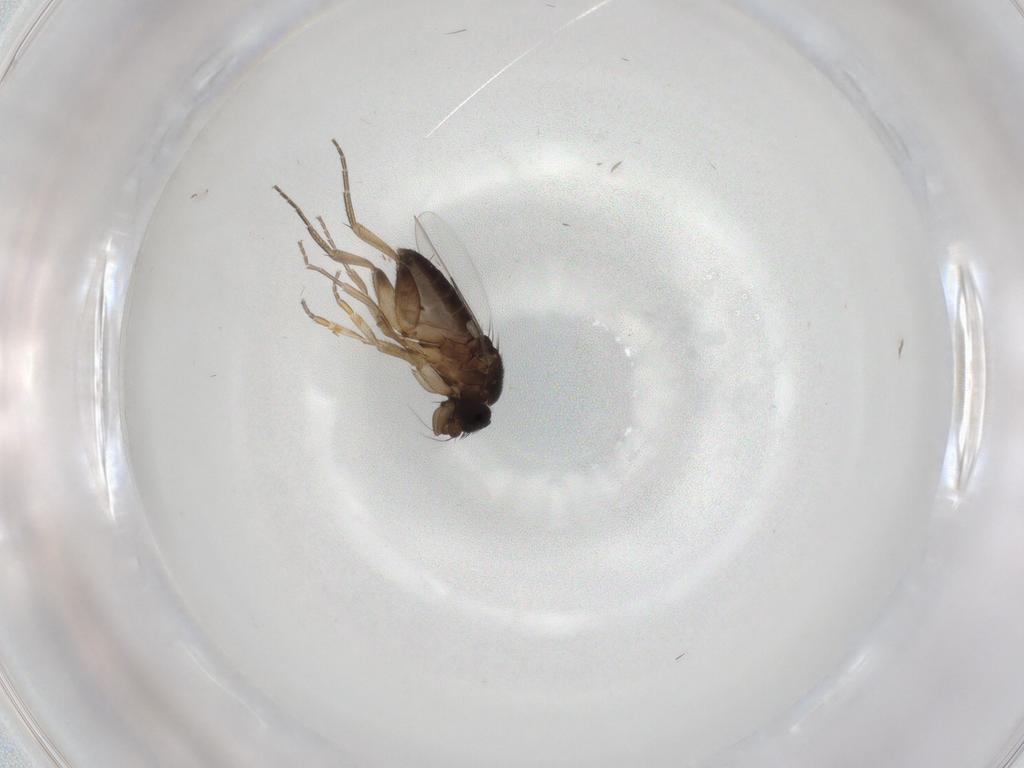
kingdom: Animalia
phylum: Arthropoda
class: Insecta
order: Diptera
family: Phoridae
